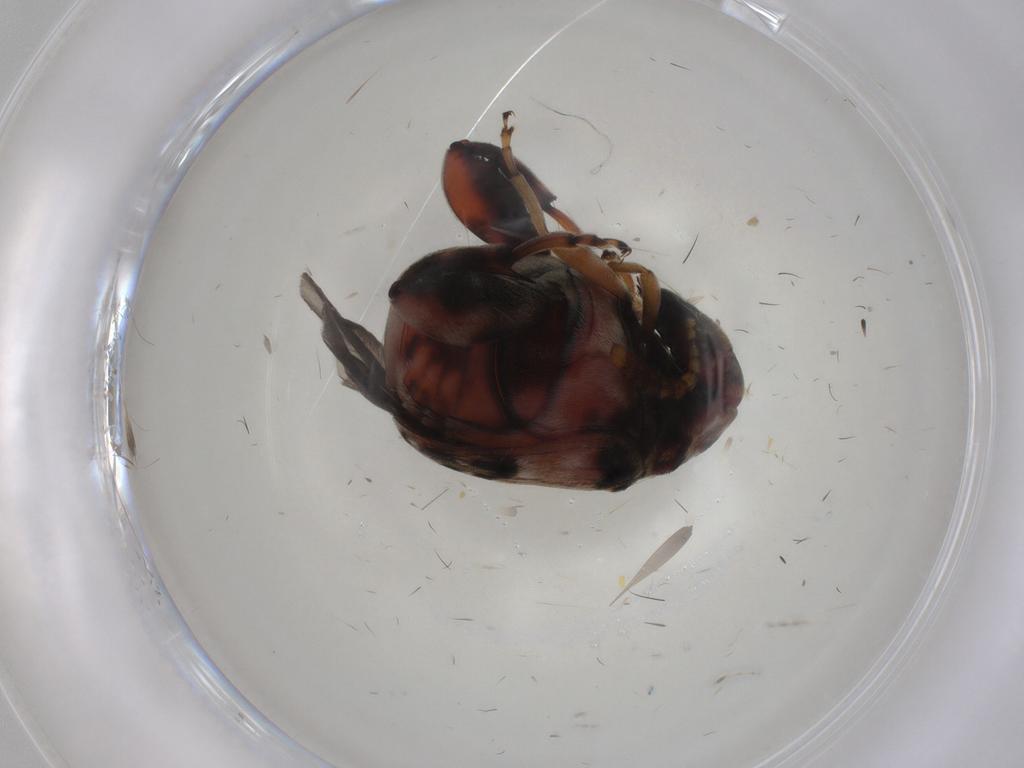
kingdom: Animalia
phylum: Arthropoda
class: Insecta
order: Coleoptera
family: Chrysomelidae
